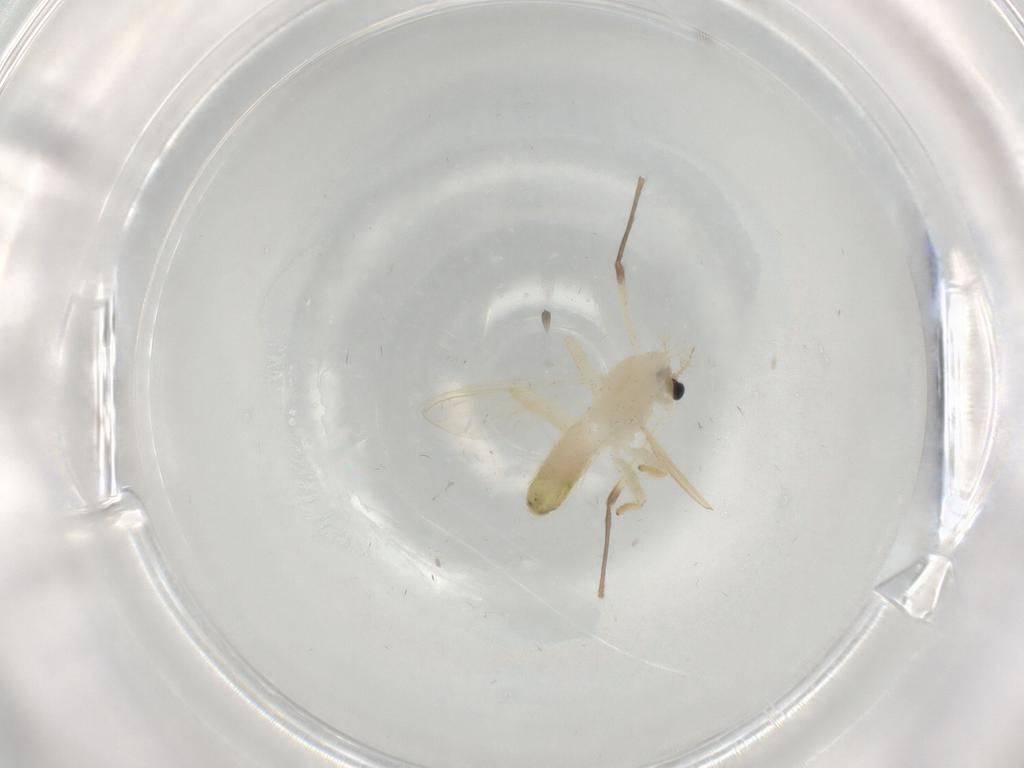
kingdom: Animalia
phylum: Arthropoda
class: Insecta
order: Diptera
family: Chironomidae
